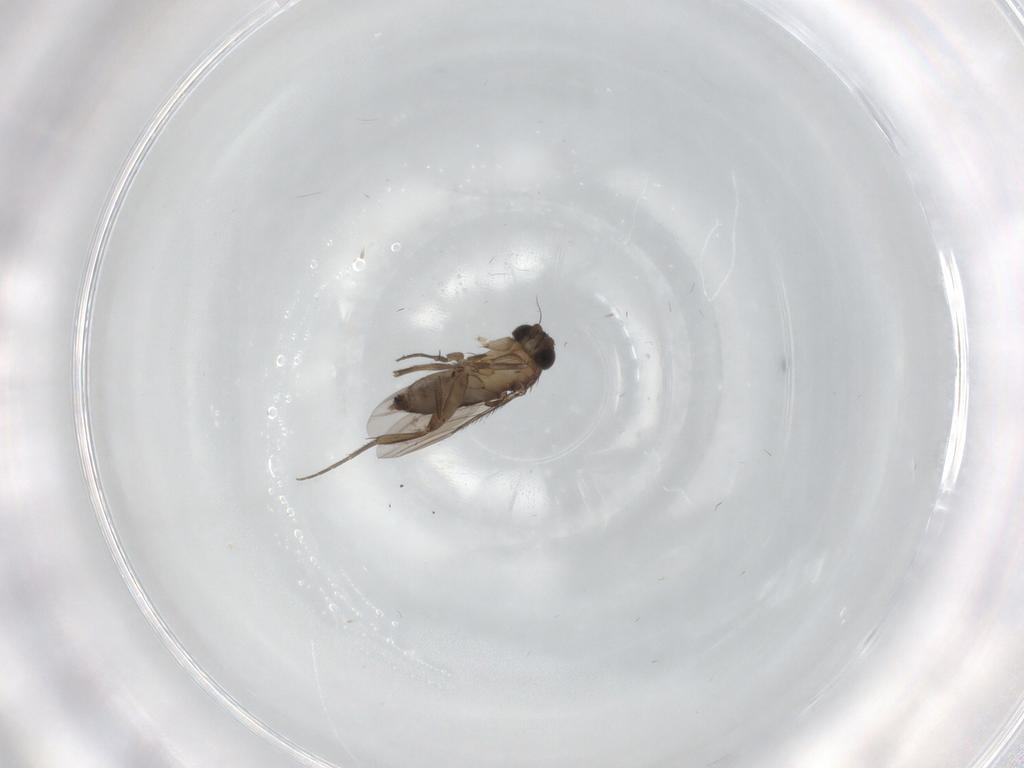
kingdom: Animalia
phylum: Arthropoda
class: Insecta
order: Diptera
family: Phoridae
